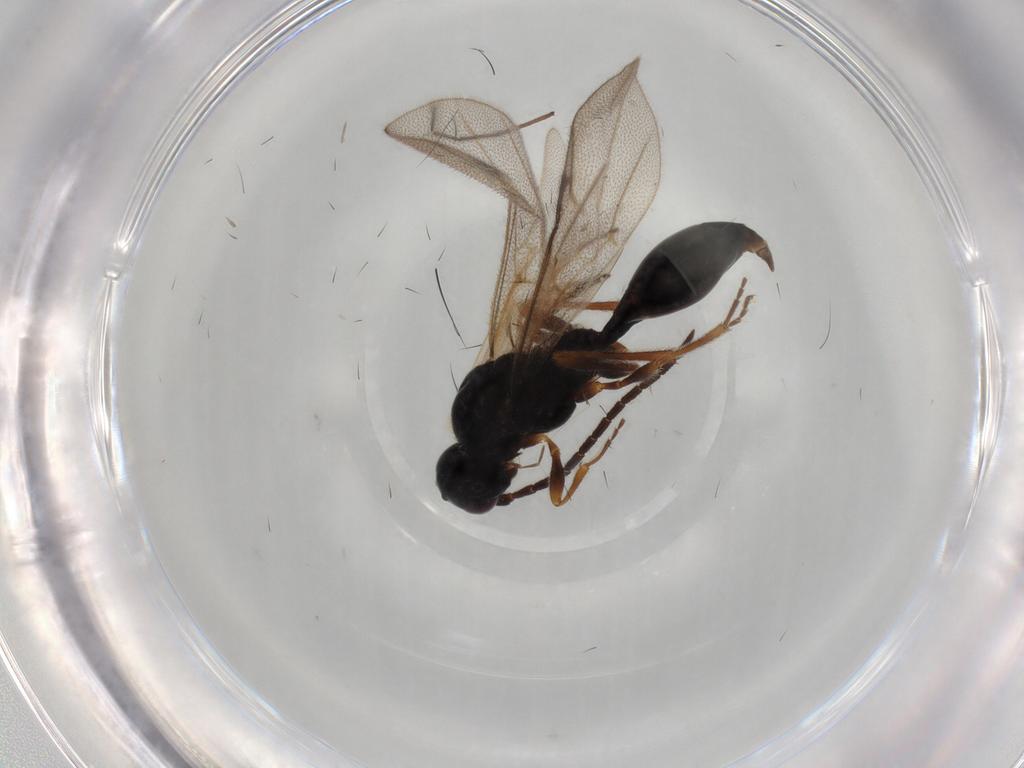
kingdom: Animalia
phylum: Arthropoda
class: Insecta
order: Hymenoptera
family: Proctotrupidae
